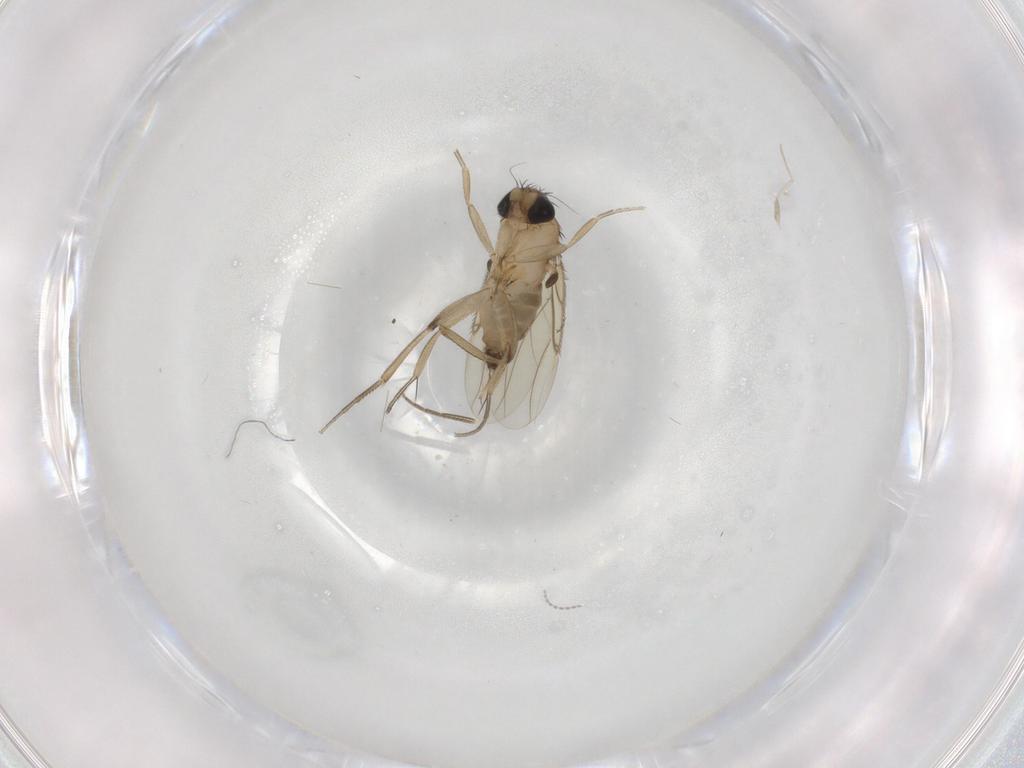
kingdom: Animalia
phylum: Arthropoda
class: Insecta
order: Diptera
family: Phoridae
